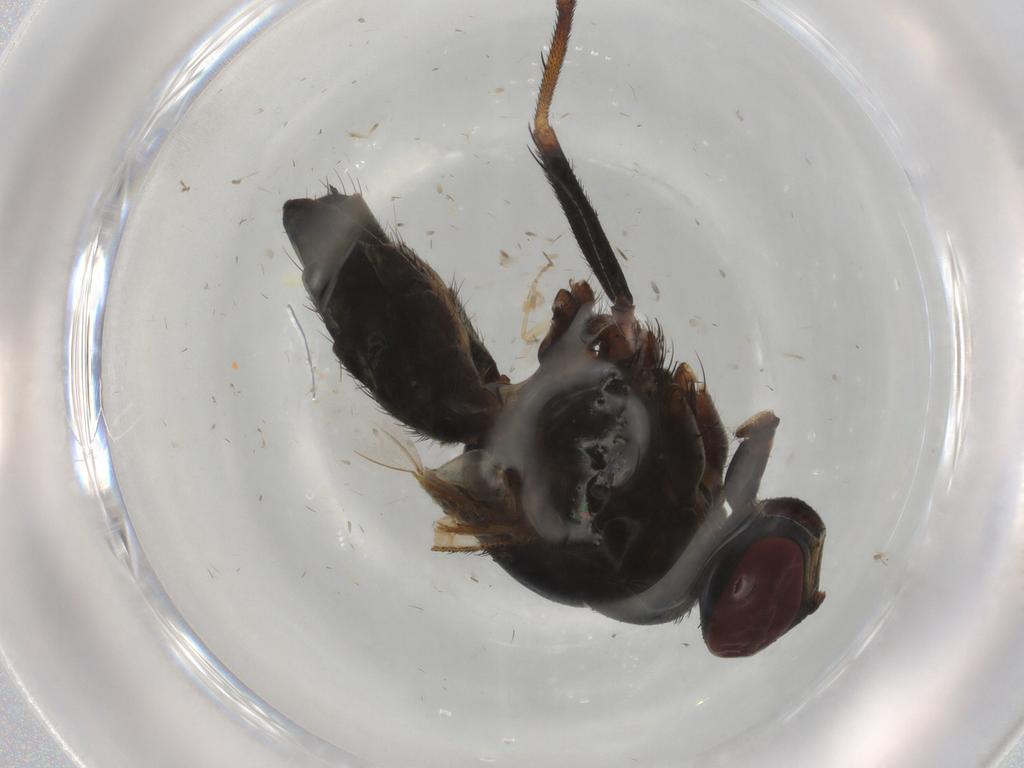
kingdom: Animalia
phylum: Arthropoda
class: Insecta
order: Diptera
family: Muscidae
